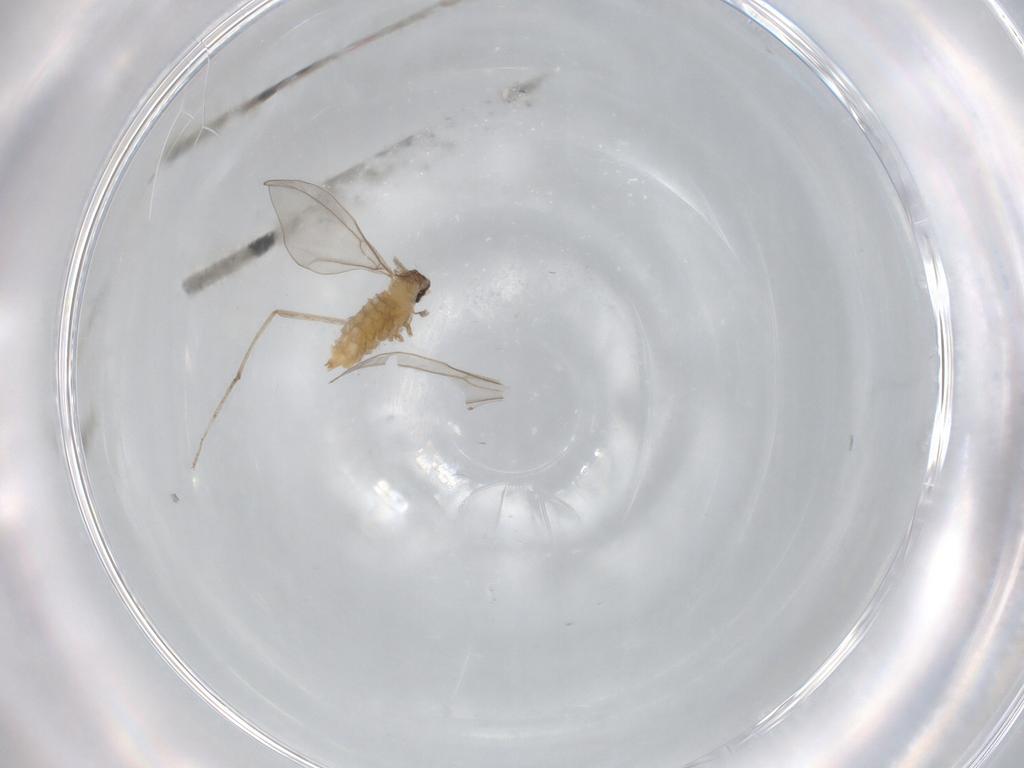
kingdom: Animalia
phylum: Arthropoda
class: Insecta
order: Diptera
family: Cecidomyiidae
